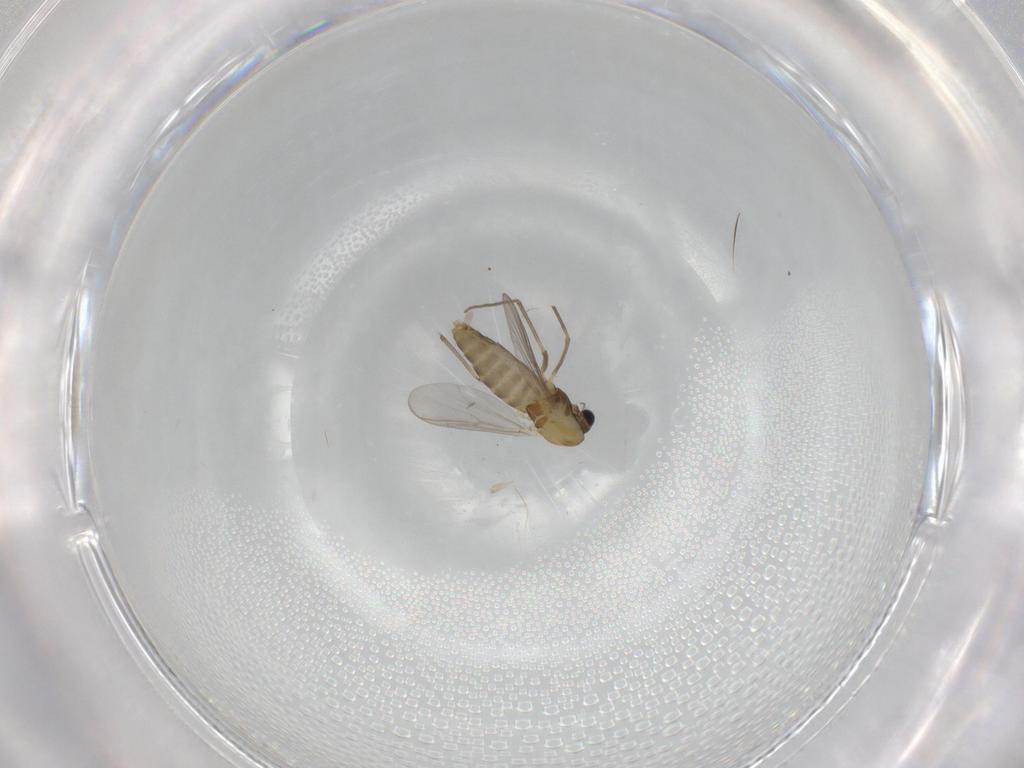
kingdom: Animalia
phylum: Arthropoda
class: Insecta
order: Diptera
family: Chironomidae
